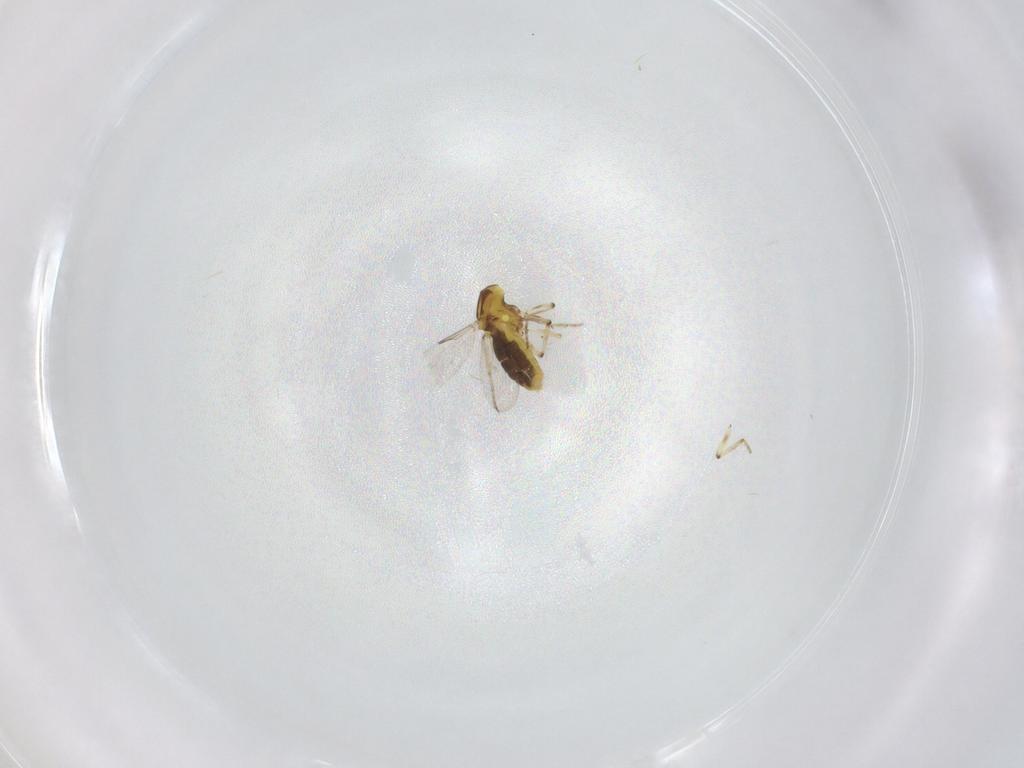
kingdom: Animalia
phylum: Arthropoda
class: Insecta
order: Diptera
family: Ceratopogonidae
